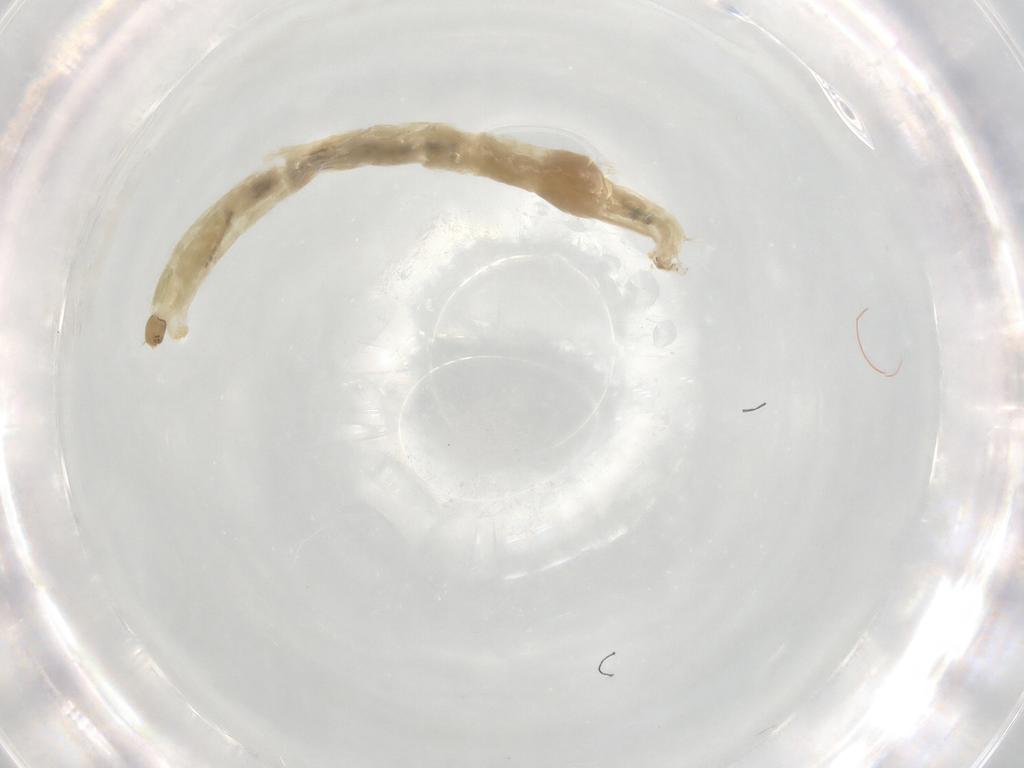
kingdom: Animalia
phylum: Arthropoda
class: Insecta
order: Diptera
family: Chironomidae
